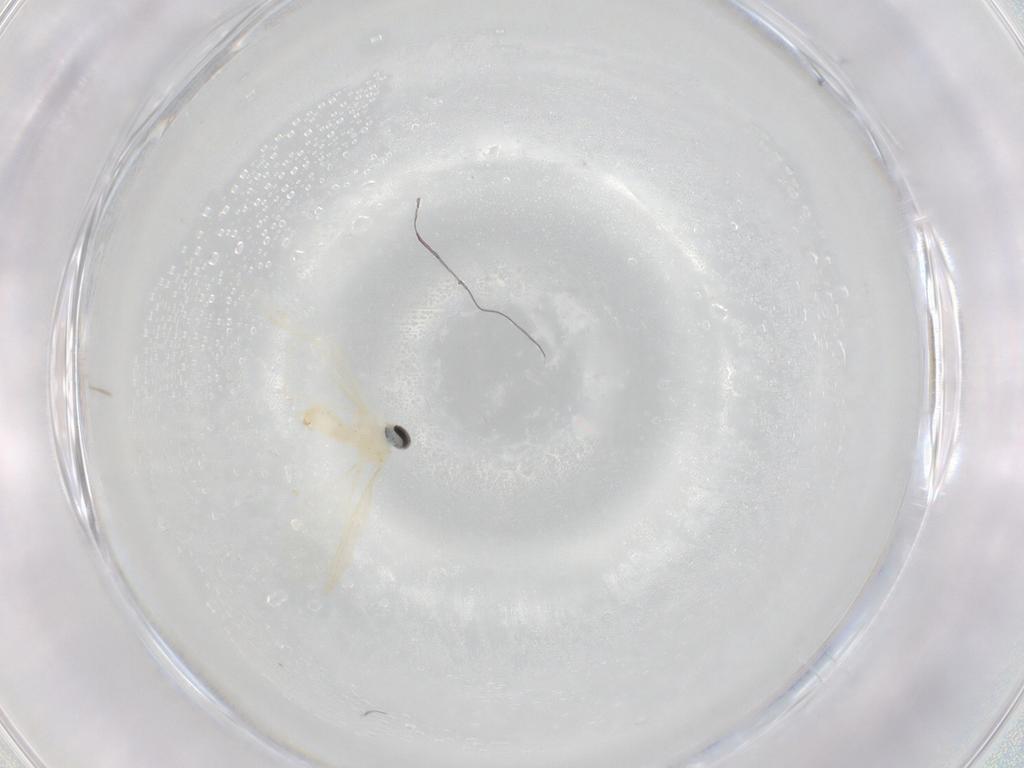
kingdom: Animalia
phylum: Arthropoda
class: Insecta
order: Diptera
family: Cecidomyiidae
